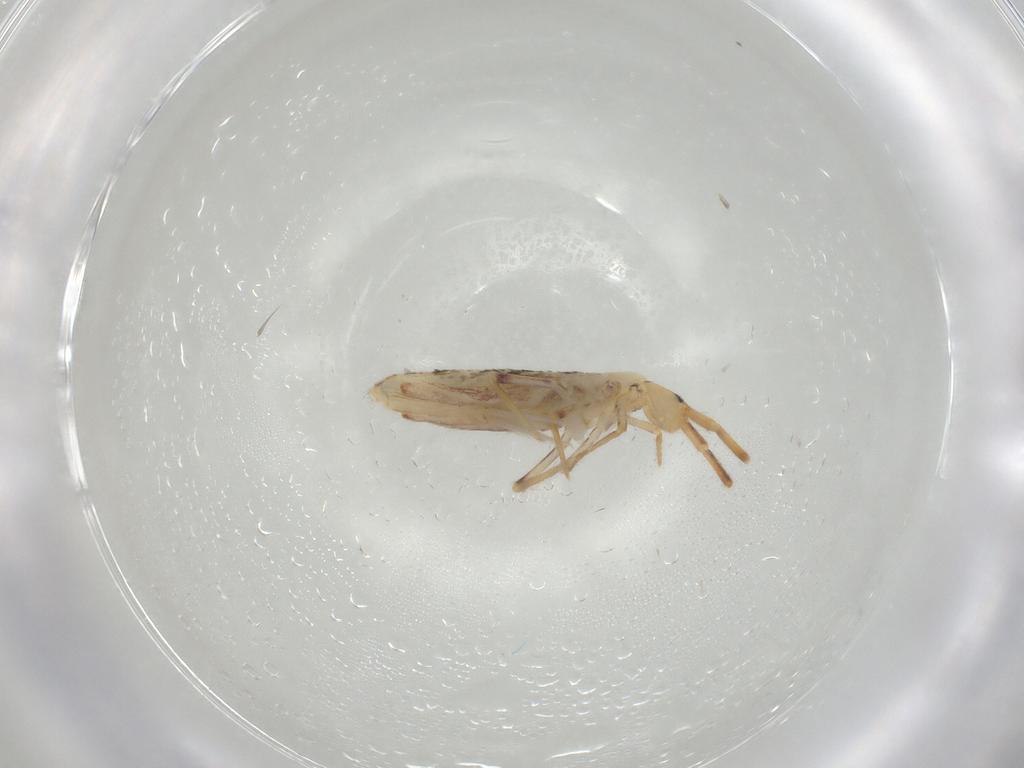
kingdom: Animalia
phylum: Arthropoda
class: Collembola
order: Poduromorpha
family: Hypogastruridae
